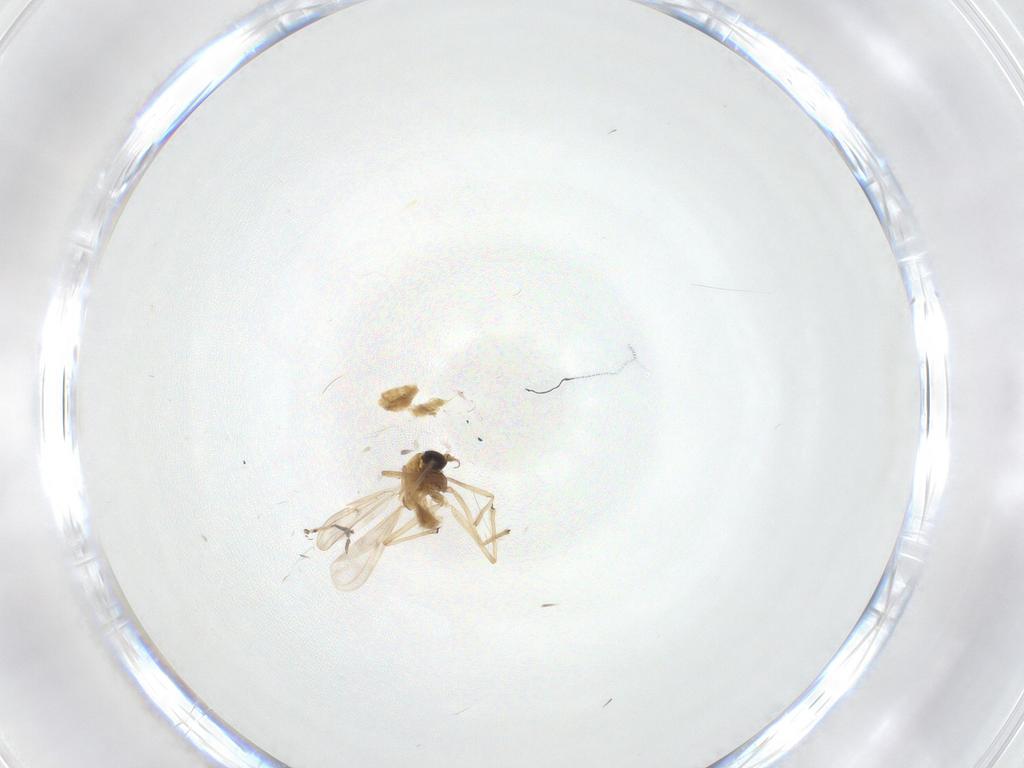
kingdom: Animalia
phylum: Arthropoda
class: Insecta
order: Diptera
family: Chironomidae
